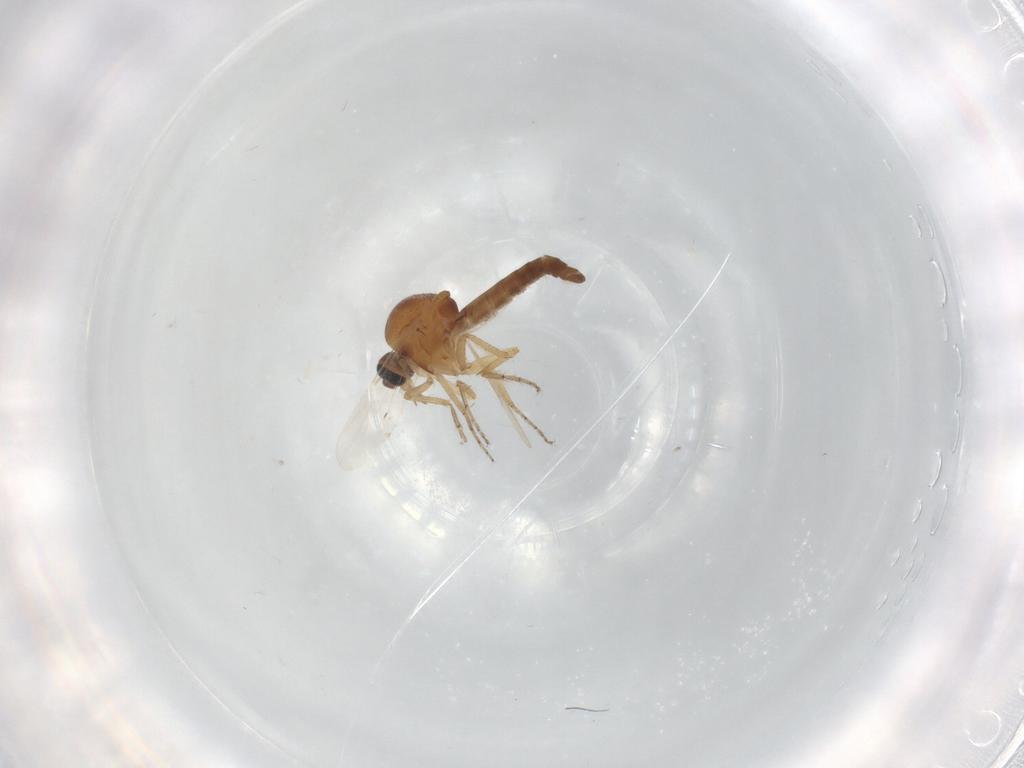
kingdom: Animalia
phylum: Arthropoda
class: Insecta
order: Diptera
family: Ceratopogonidae
